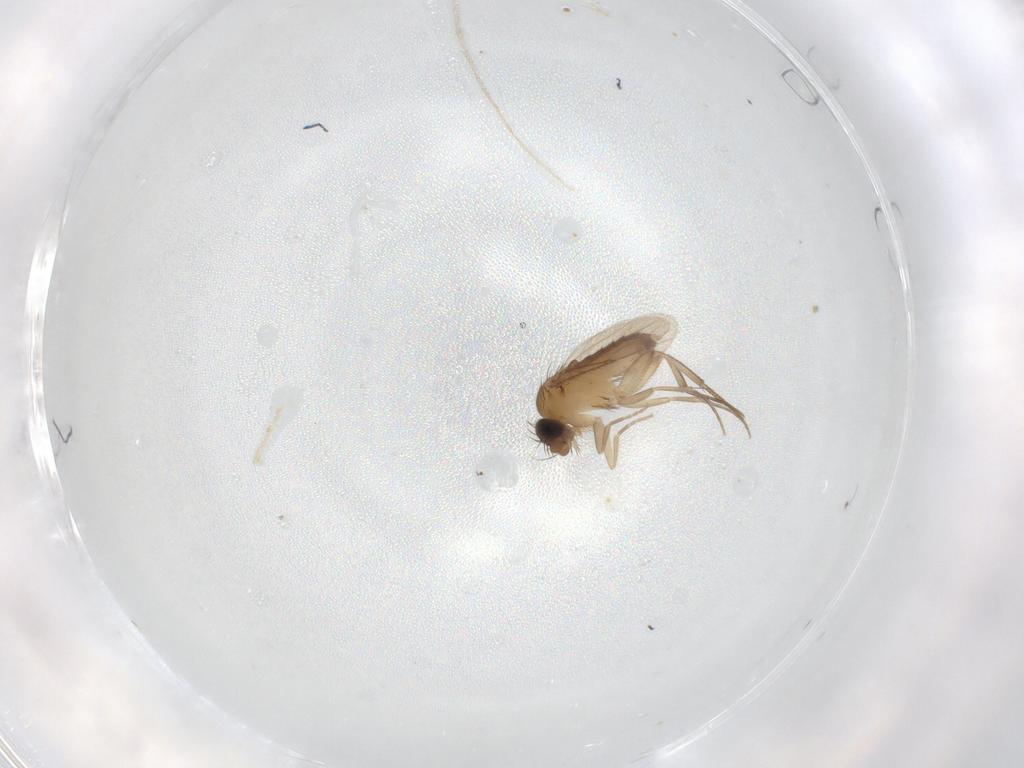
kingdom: Animalia
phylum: Arthropoda
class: Insecta
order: Diptera
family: Phoridae
